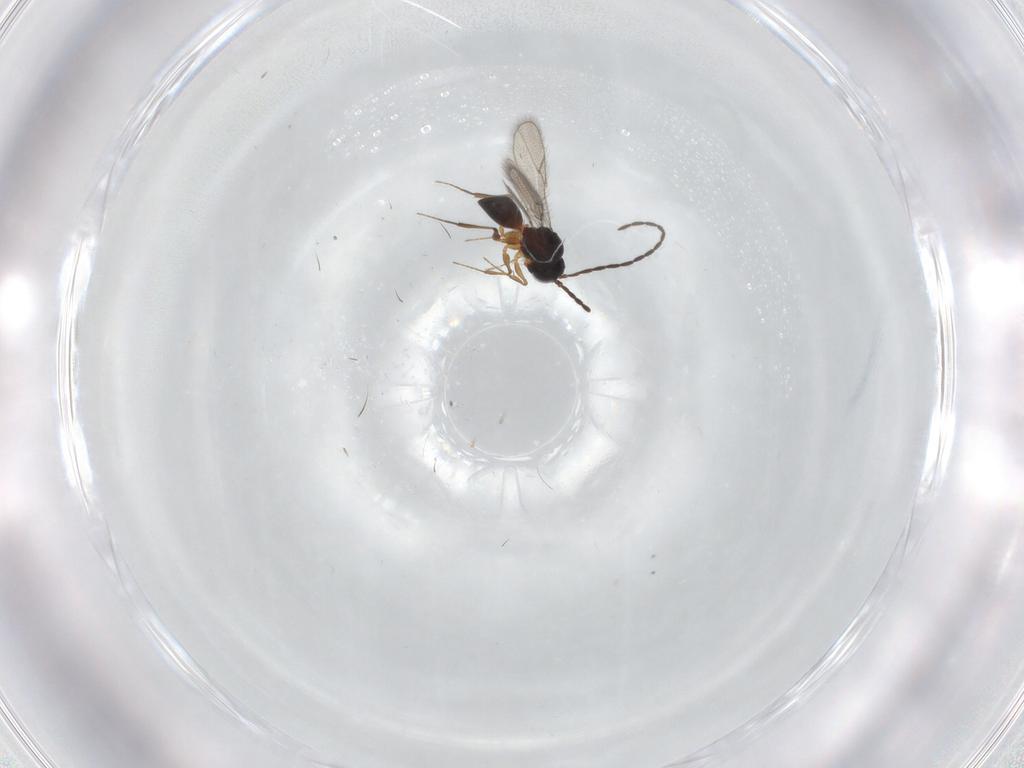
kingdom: Animalia
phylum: Arthropoda
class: Insecta
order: Hymenoptera
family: Figitidae
